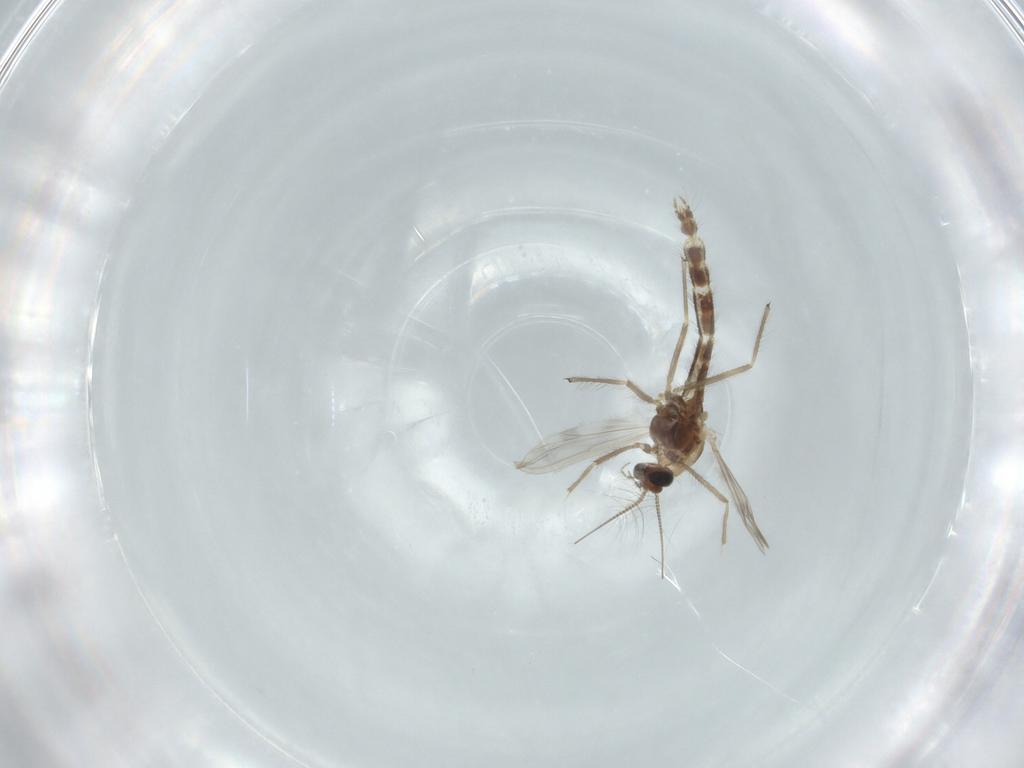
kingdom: Animalia
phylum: Arthropoda
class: Insecta
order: Diptera
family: Chironomidae
